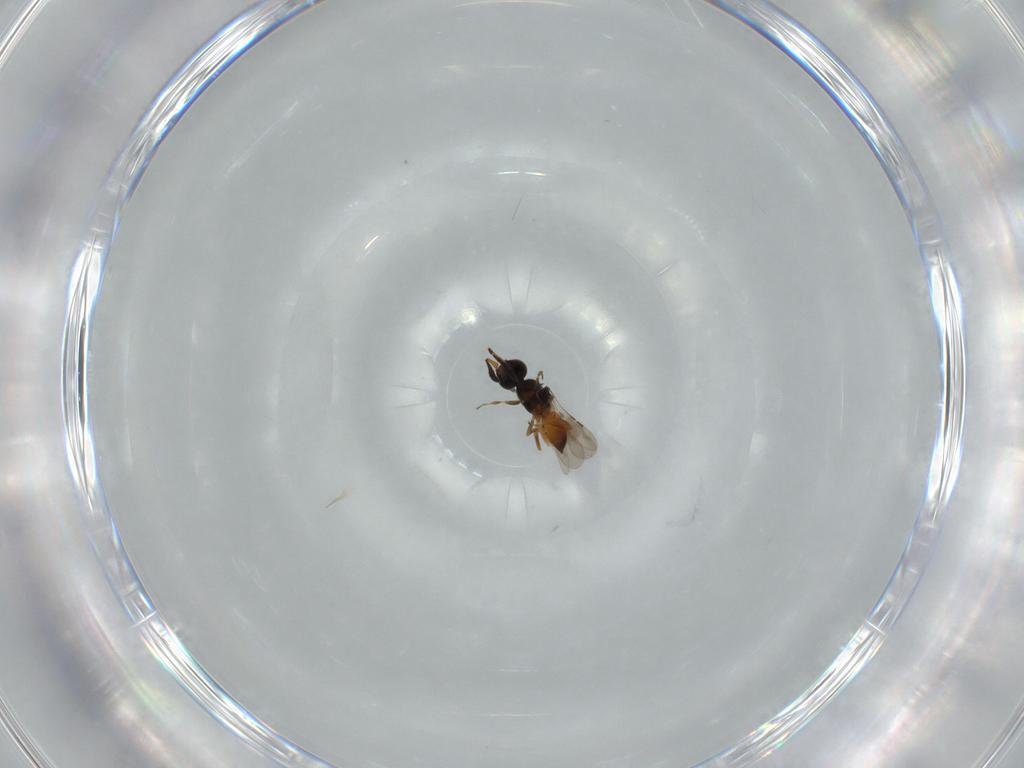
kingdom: Animalia
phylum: Arthropoda
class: Insecta
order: Hymenoptera
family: Ceraphronidae
